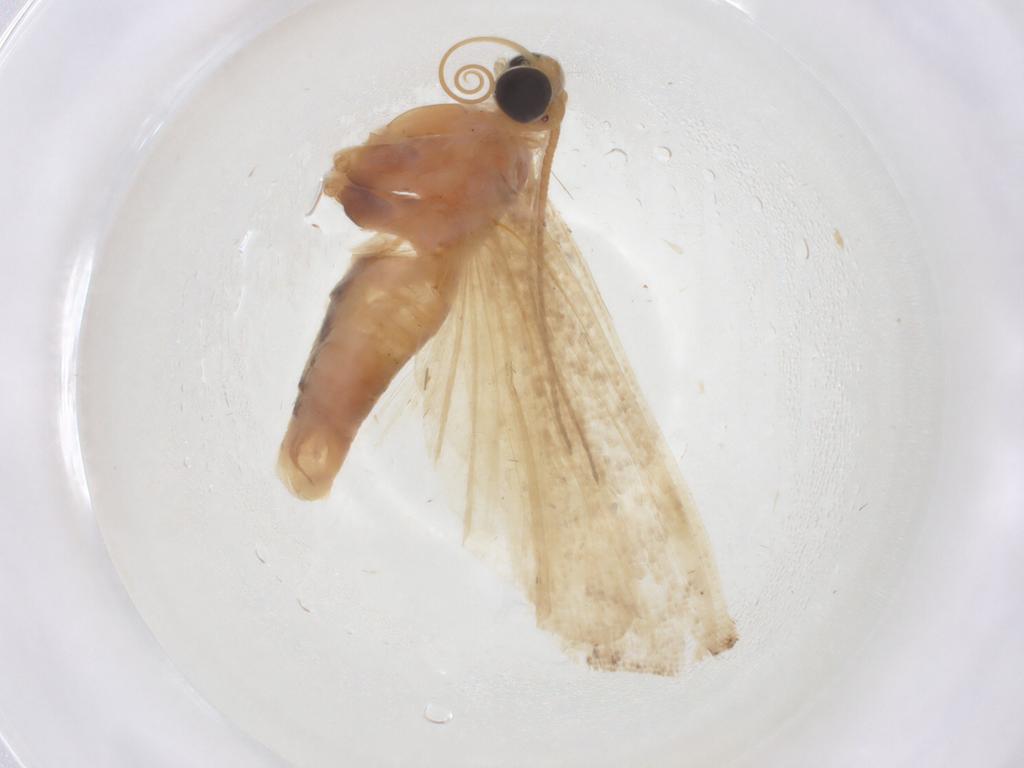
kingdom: Animalia
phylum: Arthropoda
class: Insecta
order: Lepidoptera
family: Pyralidae
